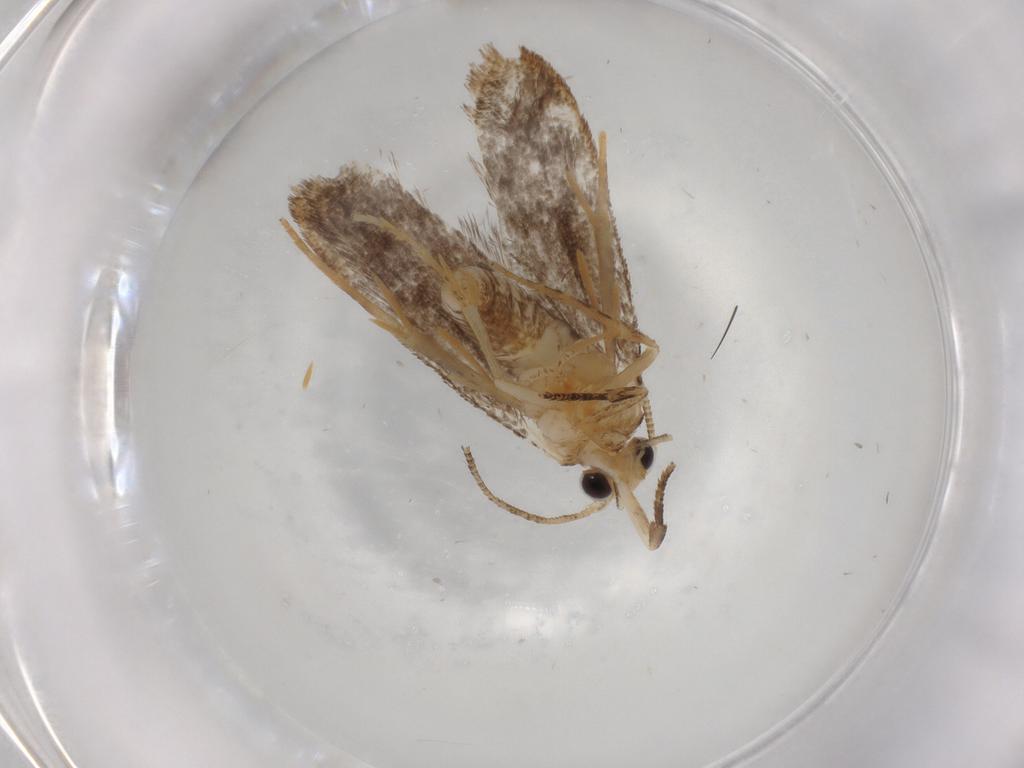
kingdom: Animalia
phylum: Arthropoda
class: Insecta
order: Lepidoptera
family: Tineidae
